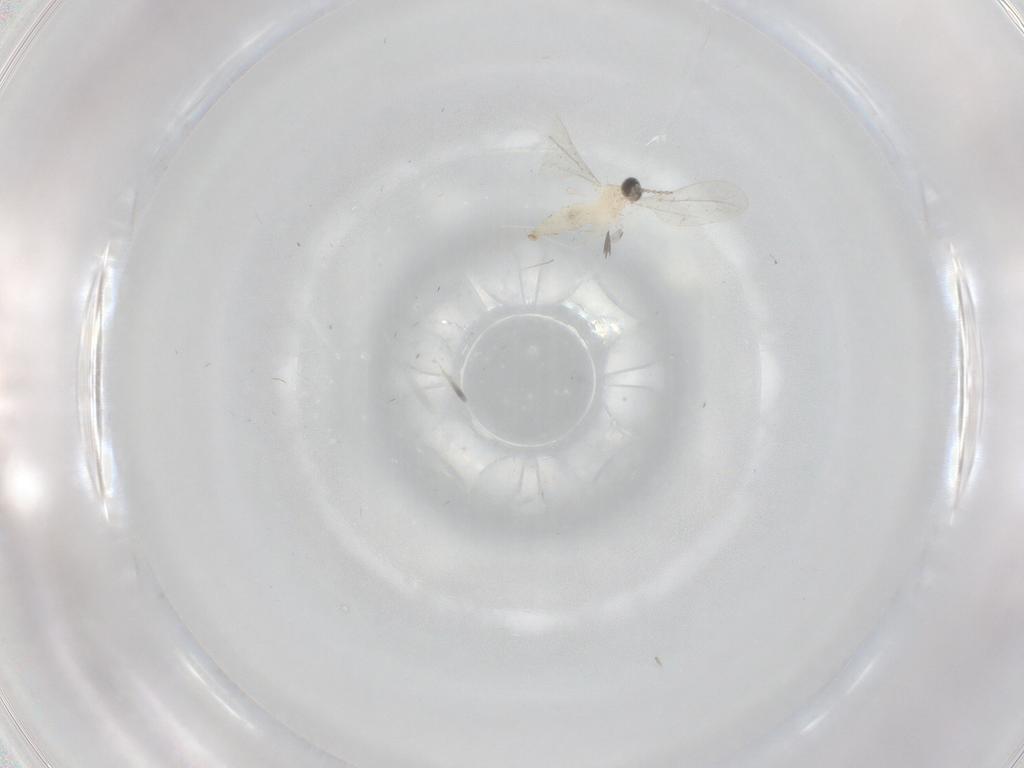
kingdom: Animalia
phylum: Arthropoda
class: Insecta
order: Diptera
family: Cecidomyiidae
